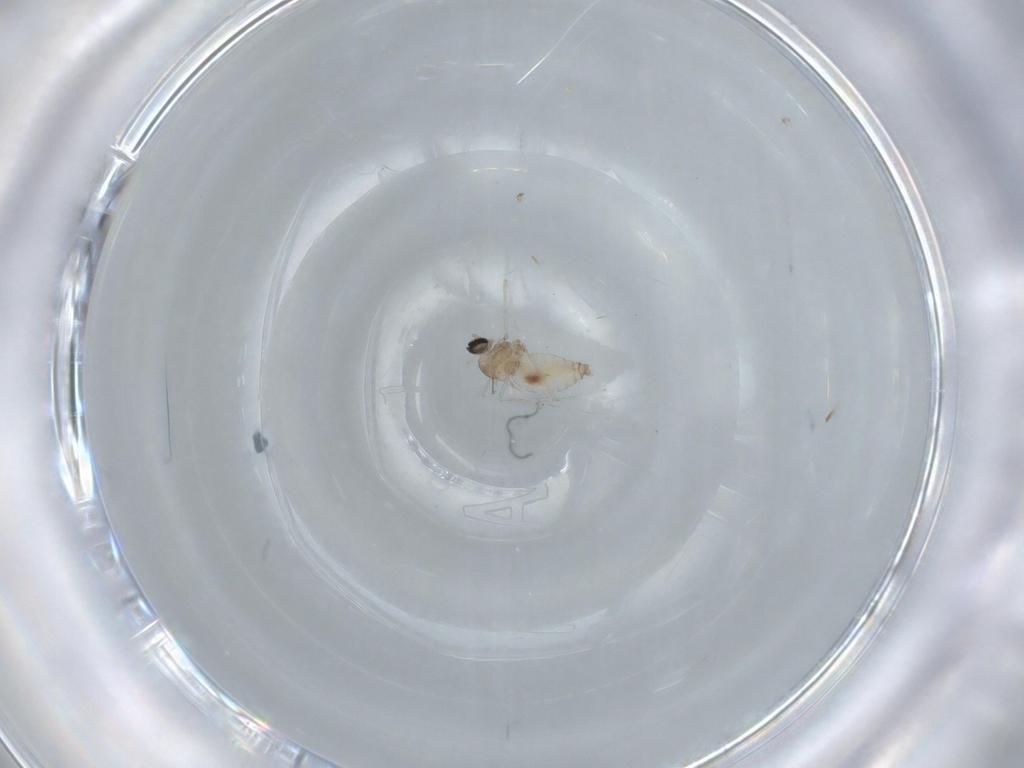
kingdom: Animalia
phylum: Arthropoda
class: Insecta
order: Diptera
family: Cecidomyiidae
